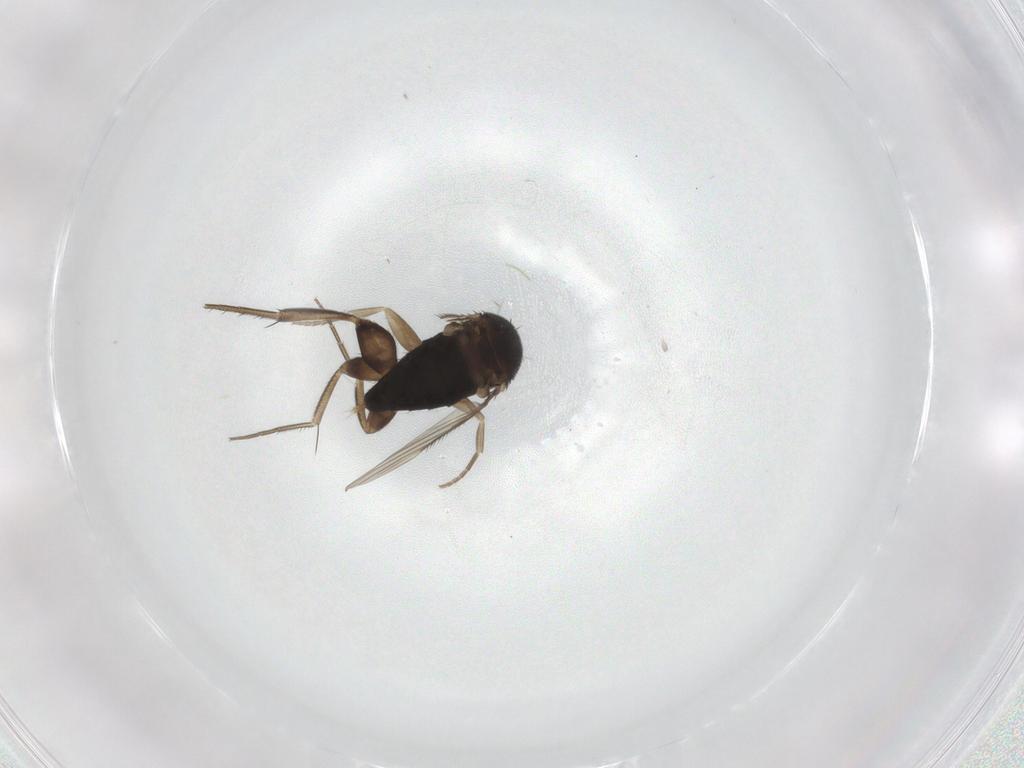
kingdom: Animalia
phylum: Arthropoda
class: Insecta
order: Diptera
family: Phoridae
